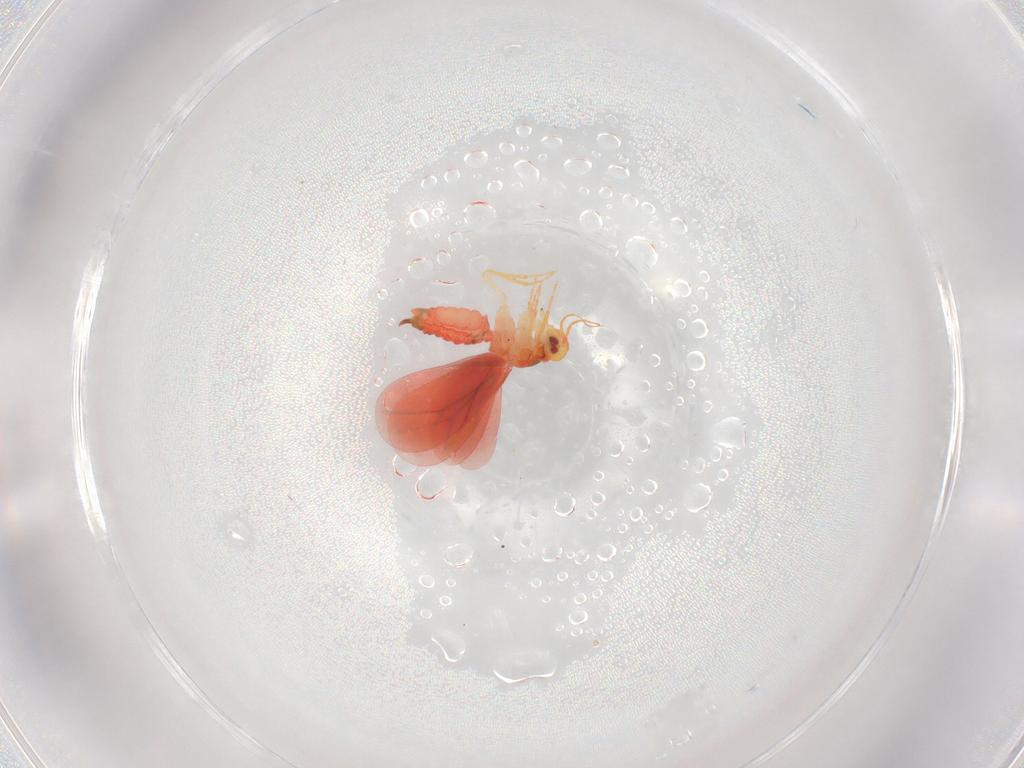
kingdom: Animalia
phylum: Arthropoda
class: Insecta
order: Hemiptera
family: Aleyrodidae
